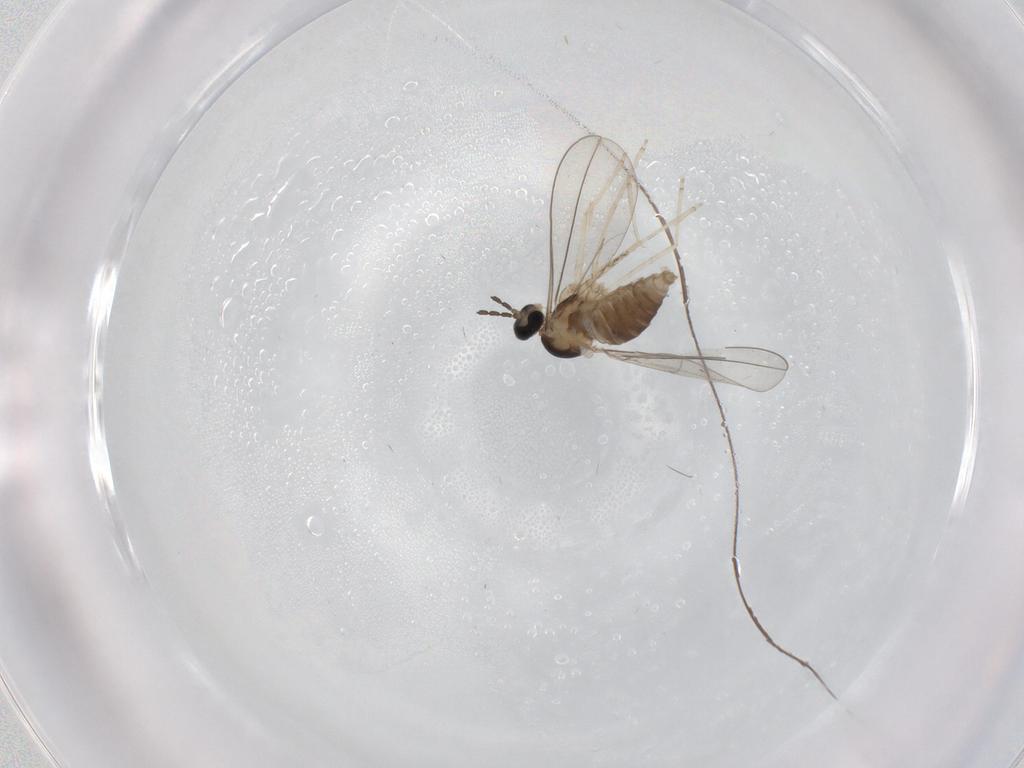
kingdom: Animalia
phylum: Arthropoda
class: Insecta
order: Diptera
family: Cecidomyiidae
